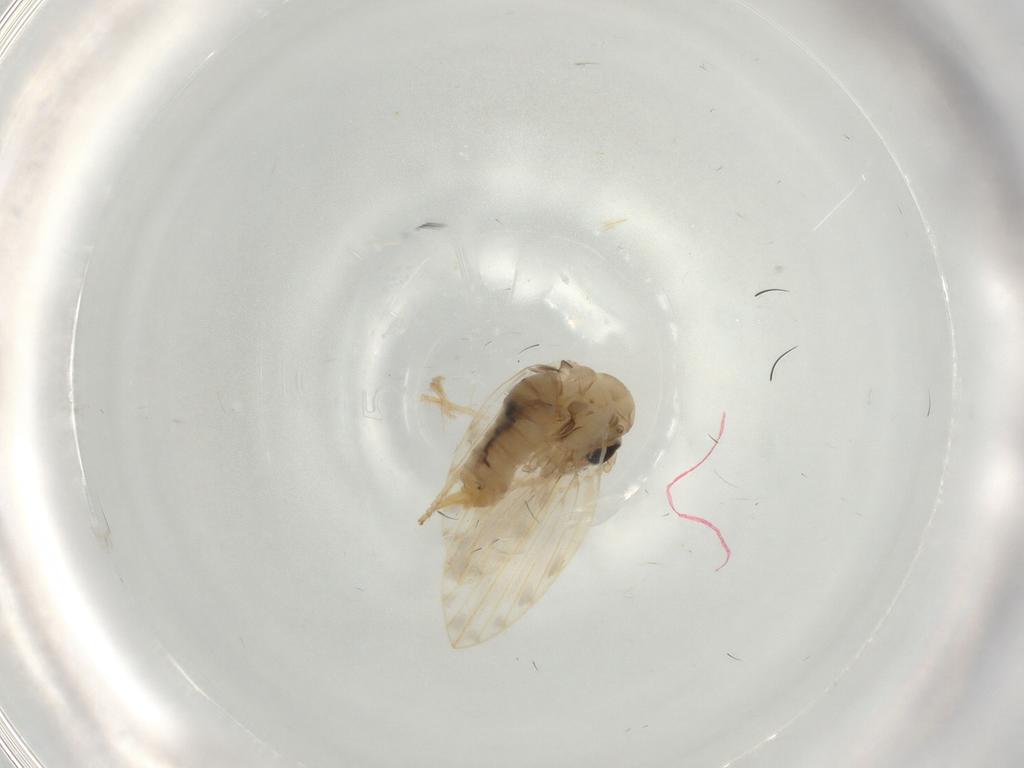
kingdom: Animalia
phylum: Arthropoda
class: Insecta
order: Diptera
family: Psychodidae
